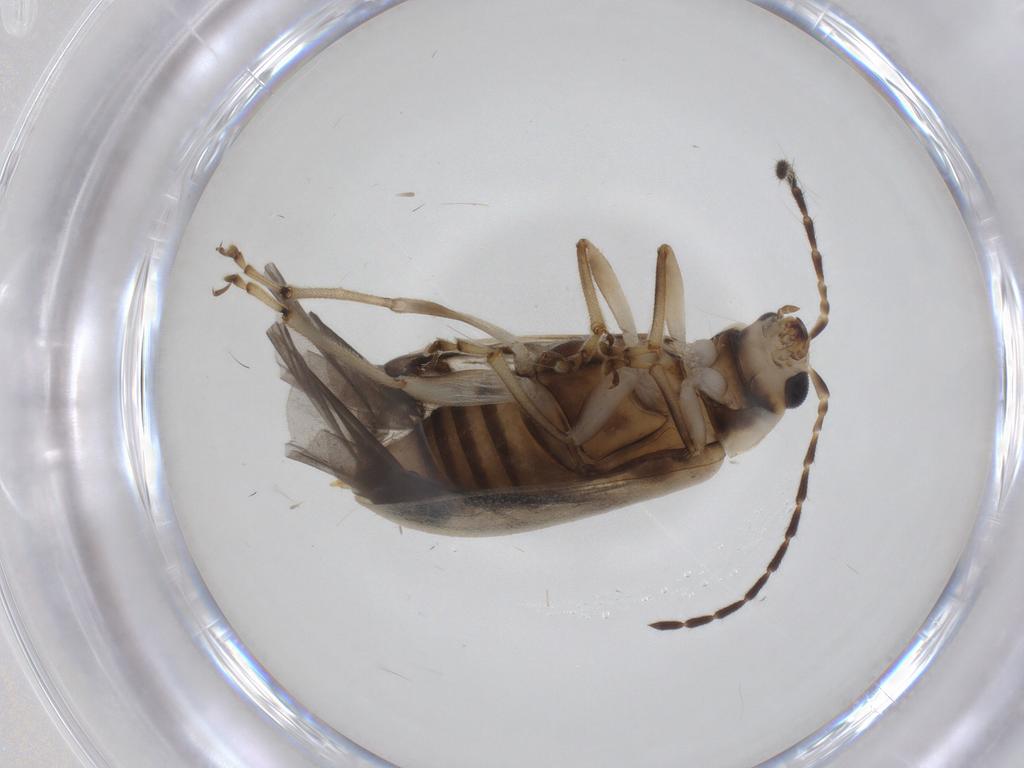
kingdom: Animalia
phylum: Arthropoda
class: Insecta
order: Coleoptera
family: Chrysomelidae
